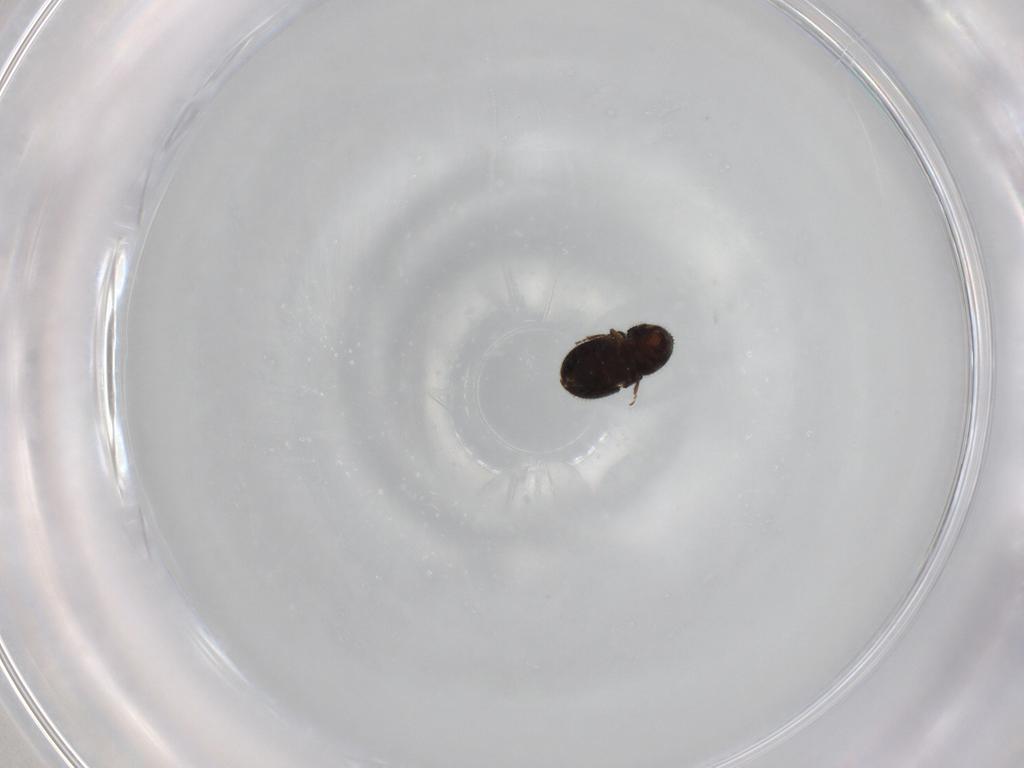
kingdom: Animalia
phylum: Arthropoda
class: Insecta
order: Coleoptera
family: Curculionidae
